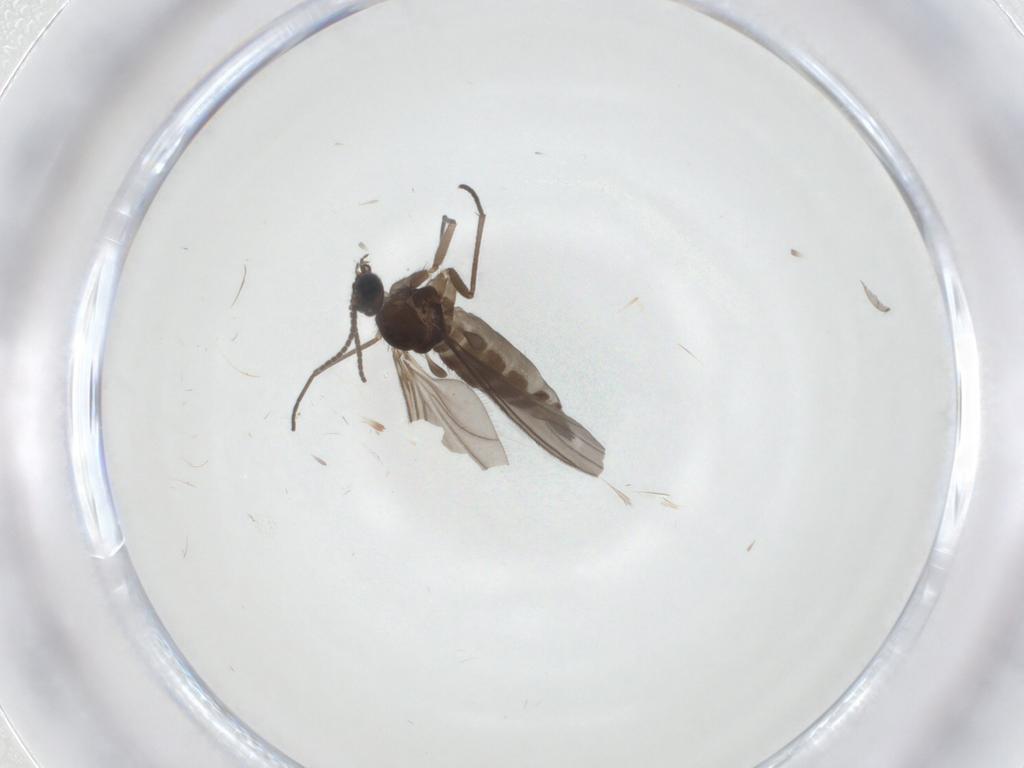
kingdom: Animalia
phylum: Arthropoda
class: Insecta
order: Diptera
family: Sciaridae
